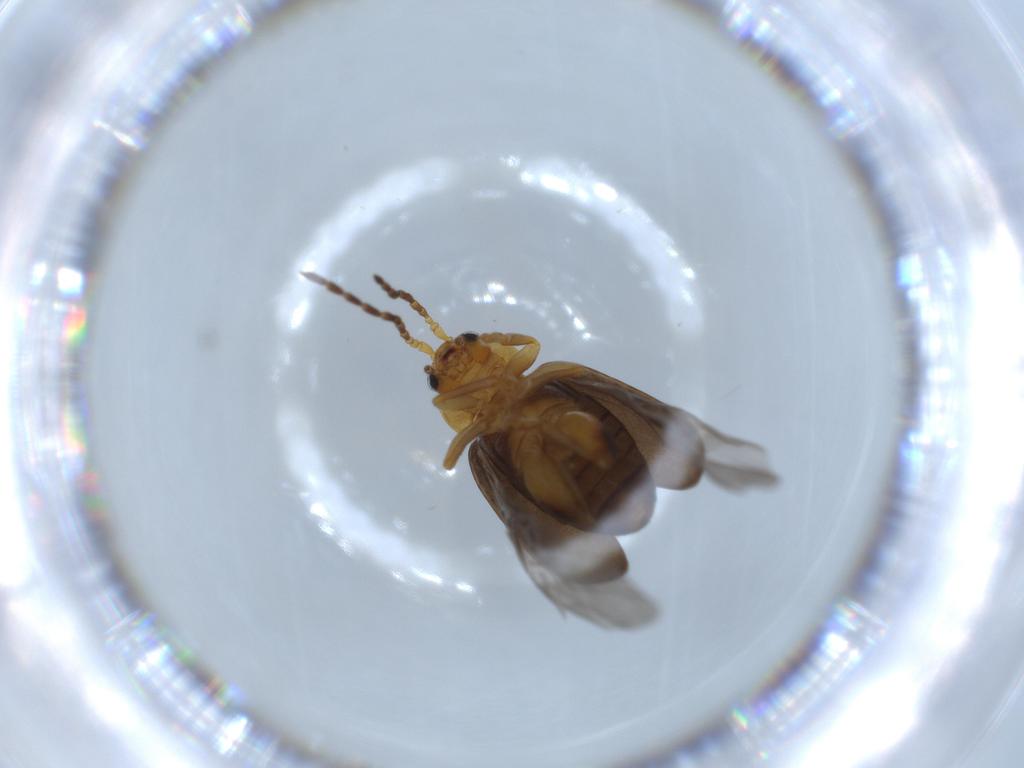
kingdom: Animalia
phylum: Arthropoda
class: Insecta
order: Coleoptera
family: Chrysomelidae
